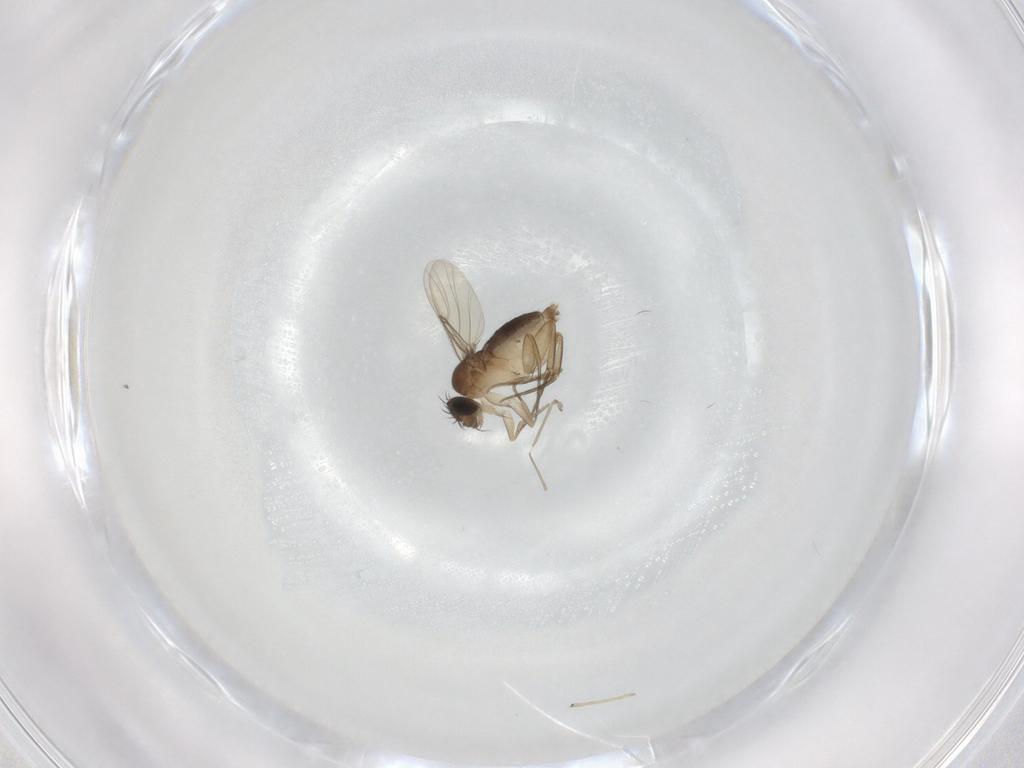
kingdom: Animalia
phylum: Arthropoda
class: Insecta
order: Diptera
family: Phoridae
